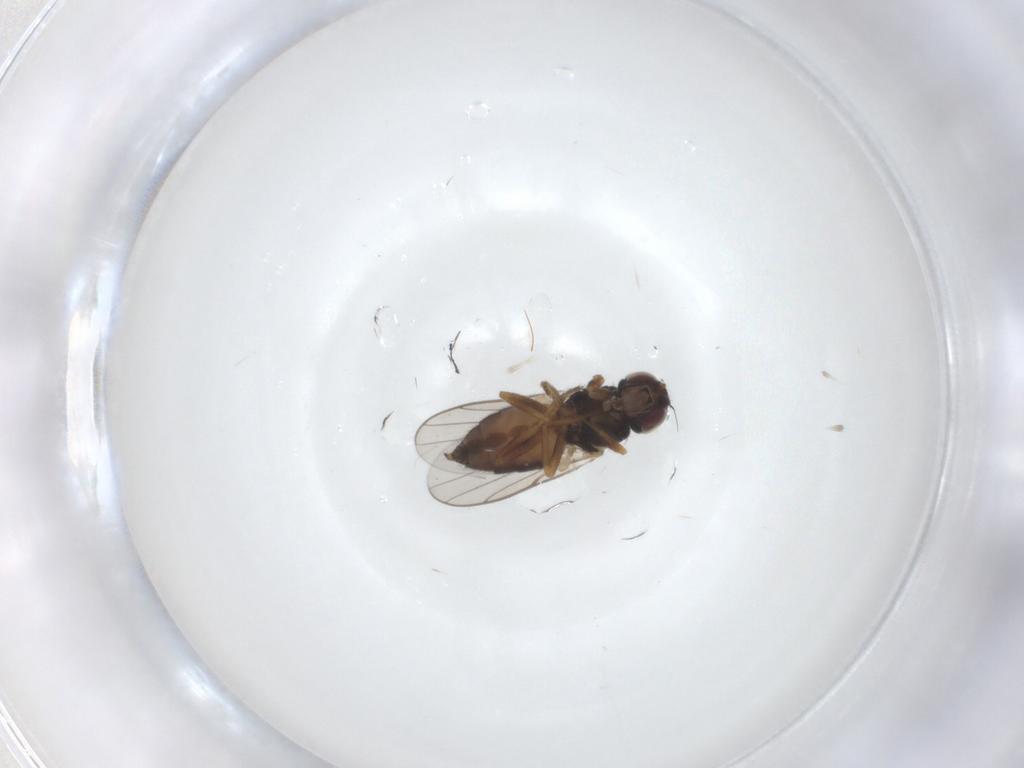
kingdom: Animalia
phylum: Arthropoda
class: Insecta
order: Diptera
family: Chloropidae
